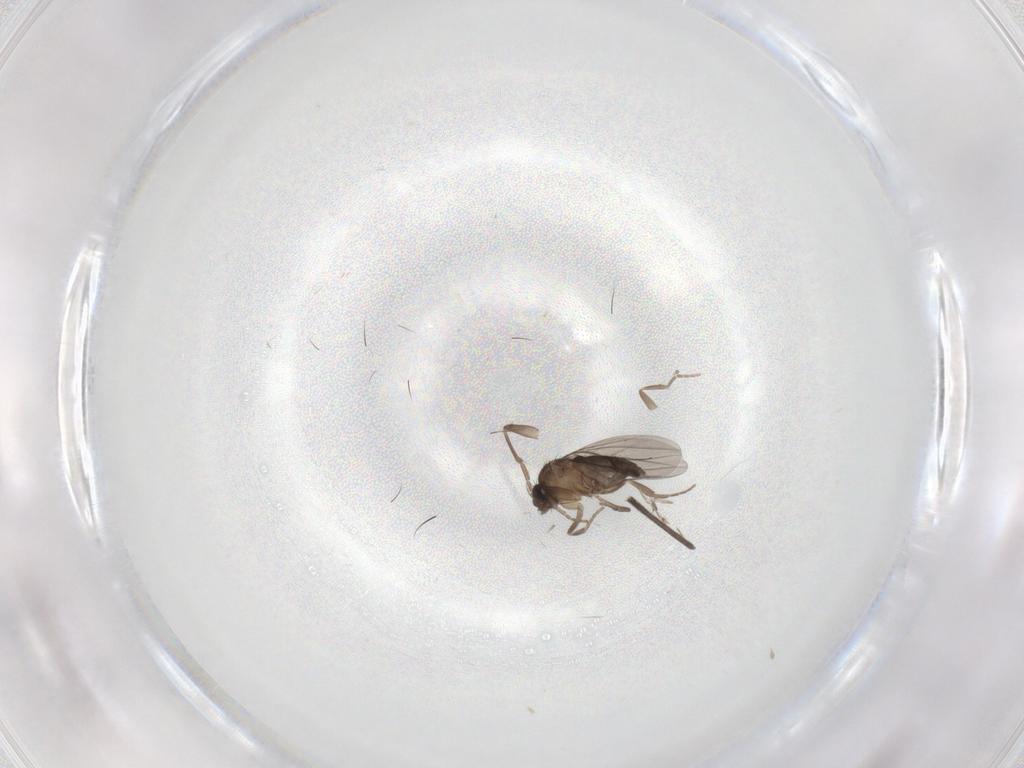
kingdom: Animalia
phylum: Arthropoda
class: Insecta
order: Diptera
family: Phoridae
